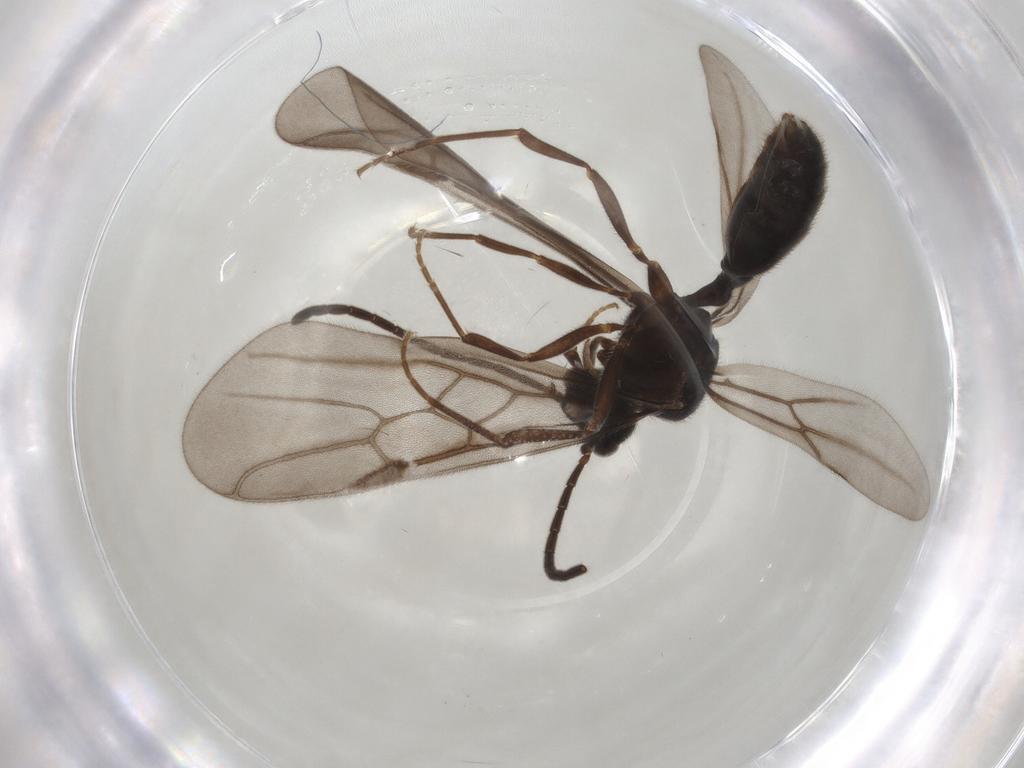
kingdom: Animalia
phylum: Arthropoda
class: Insecta
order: Hymenoptera
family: Formicidae
